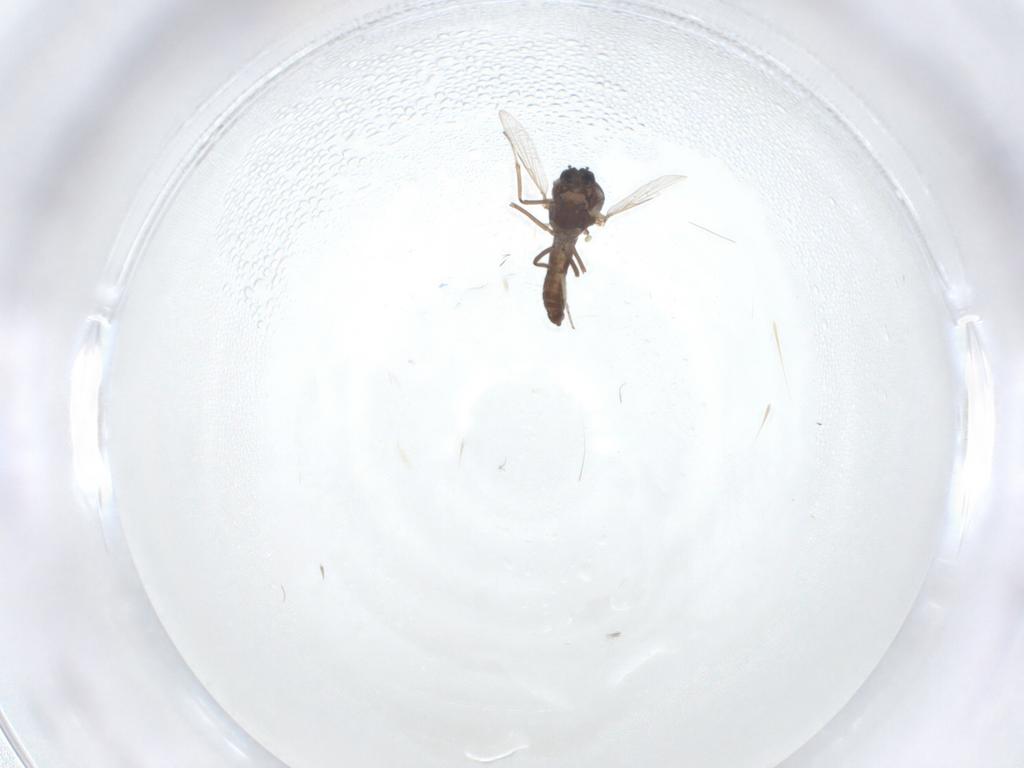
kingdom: Animalia
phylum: Arthropoda
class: Insecta
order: Diptera
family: Ceratopogonidae
